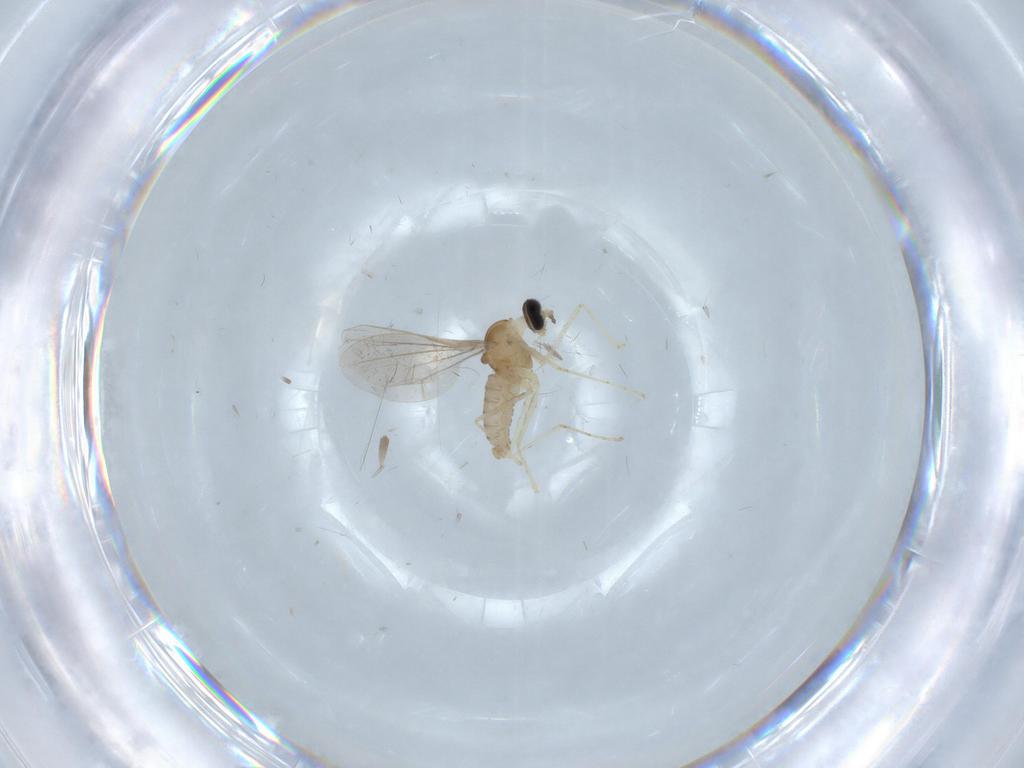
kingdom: Animalia
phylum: Arthropoda
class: Insecta
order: Diptera
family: Cecidomyiidae
